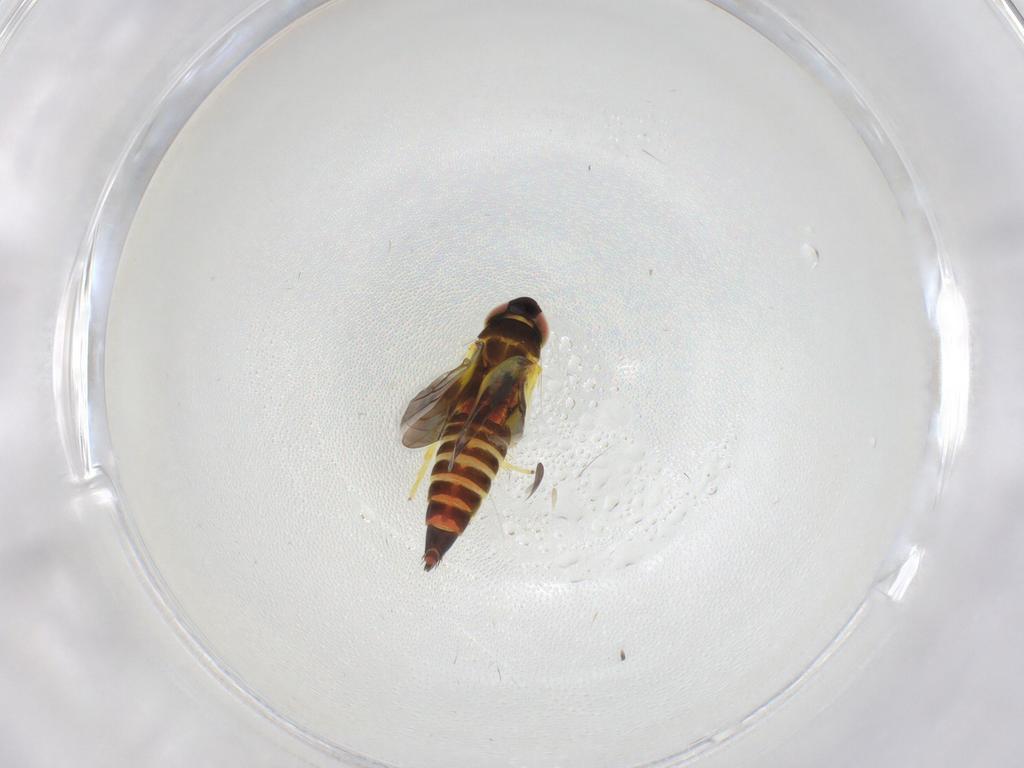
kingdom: Animalia
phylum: Arthropoda
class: Insecta
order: Hemiptera
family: Cicadellidae
